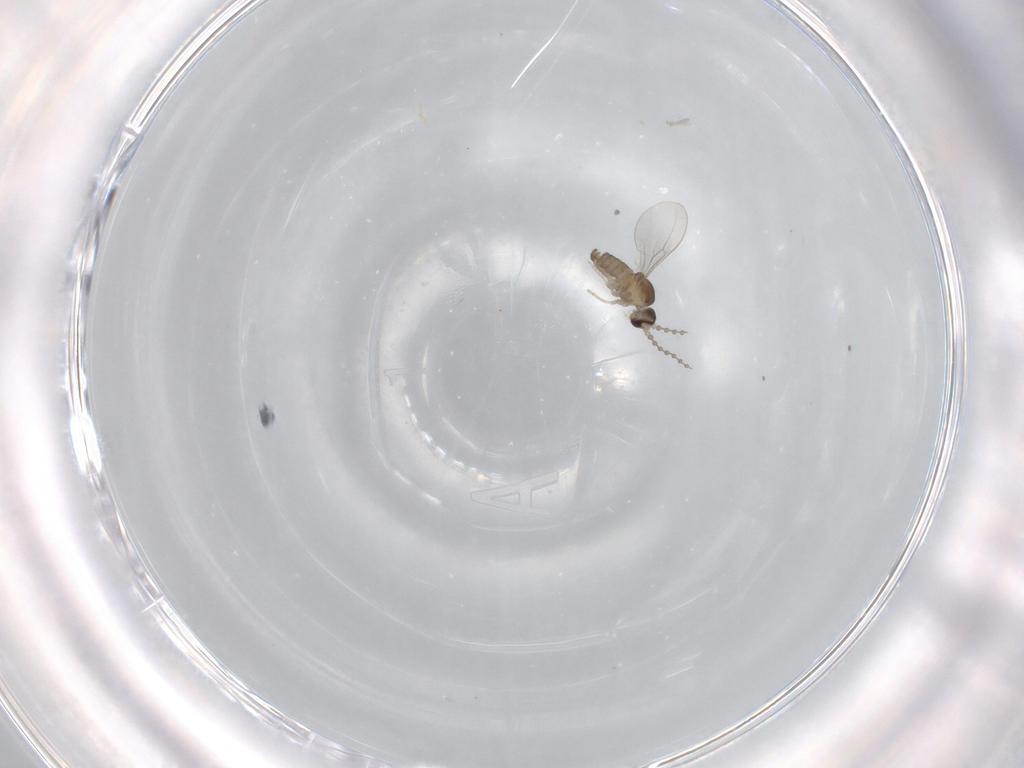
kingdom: Animalia
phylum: Arthropoda
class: Insecta
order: Diptera
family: Cecidomyiidae
